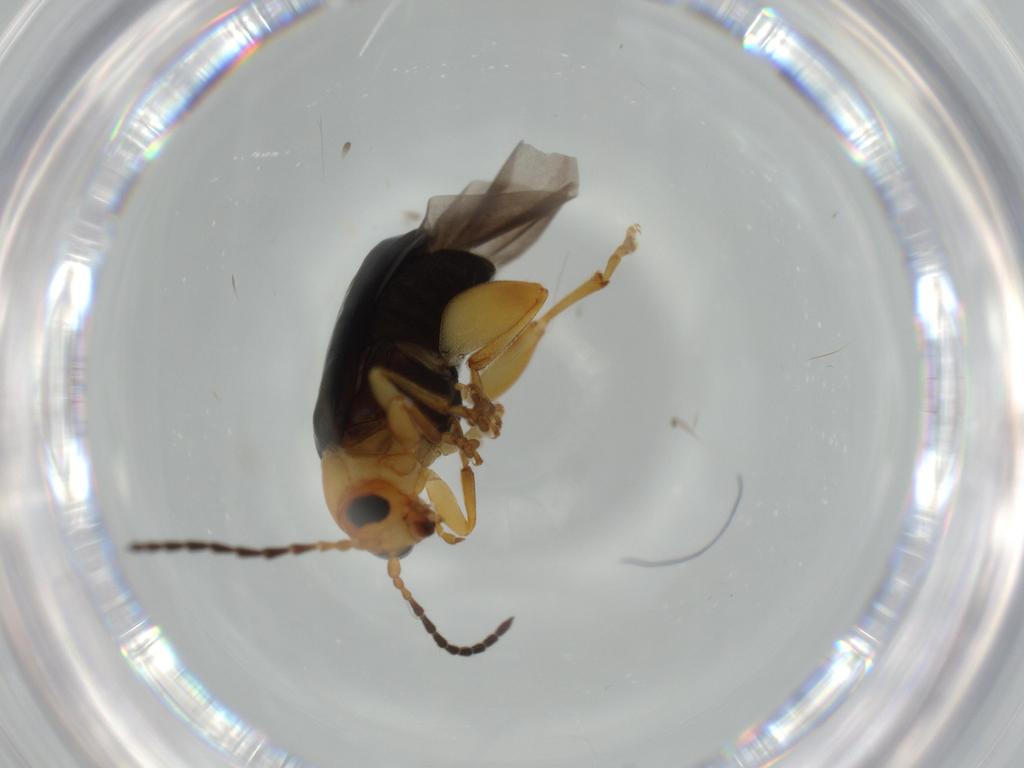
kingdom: Animalia
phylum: Arthropoda
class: Insecta
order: Coleoptera
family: Chrysomelidae
